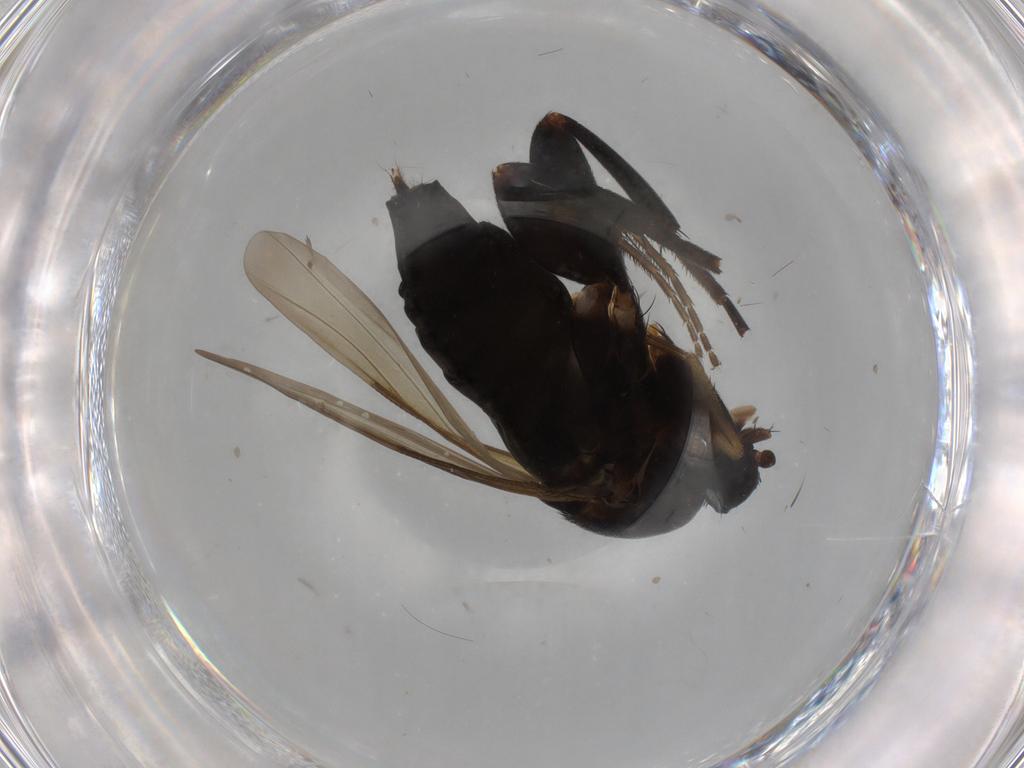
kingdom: Animalia
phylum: Arthropoda
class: Insecta
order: Diptera
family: Phoridae
